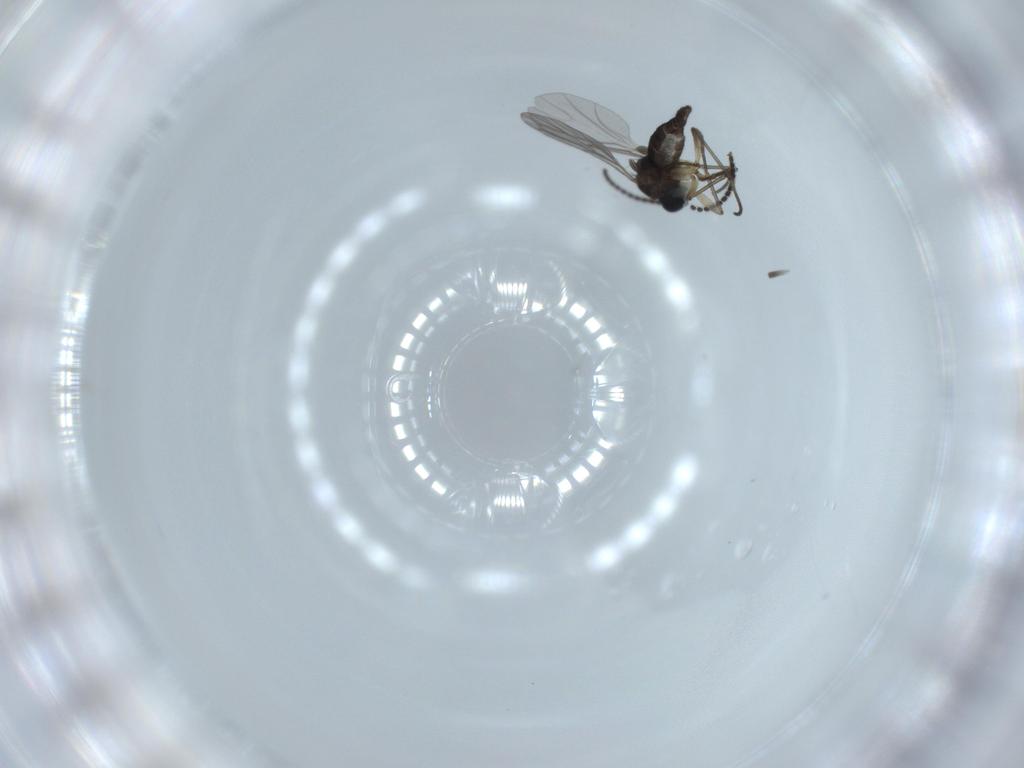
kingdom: Animalia
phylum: Arthropoda
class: Insecta
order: Diptera
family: Sciaridae
